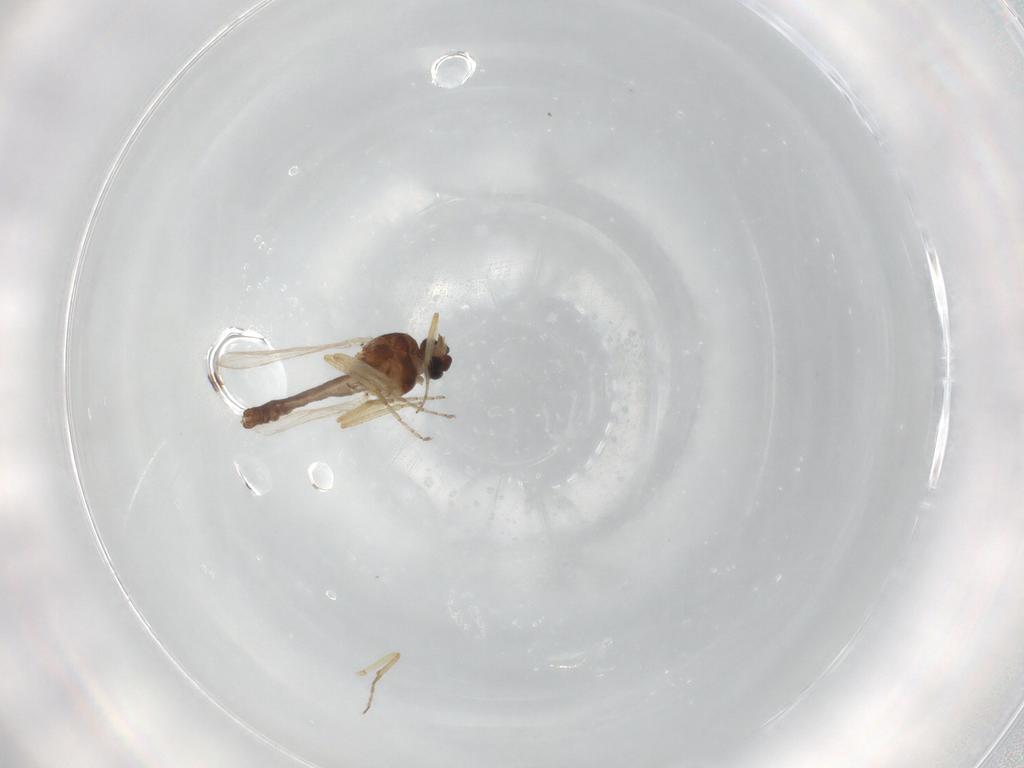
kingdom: Animalia
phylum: Arthropoda
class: Insecta
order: Diptera
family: Ceratopogonidae
